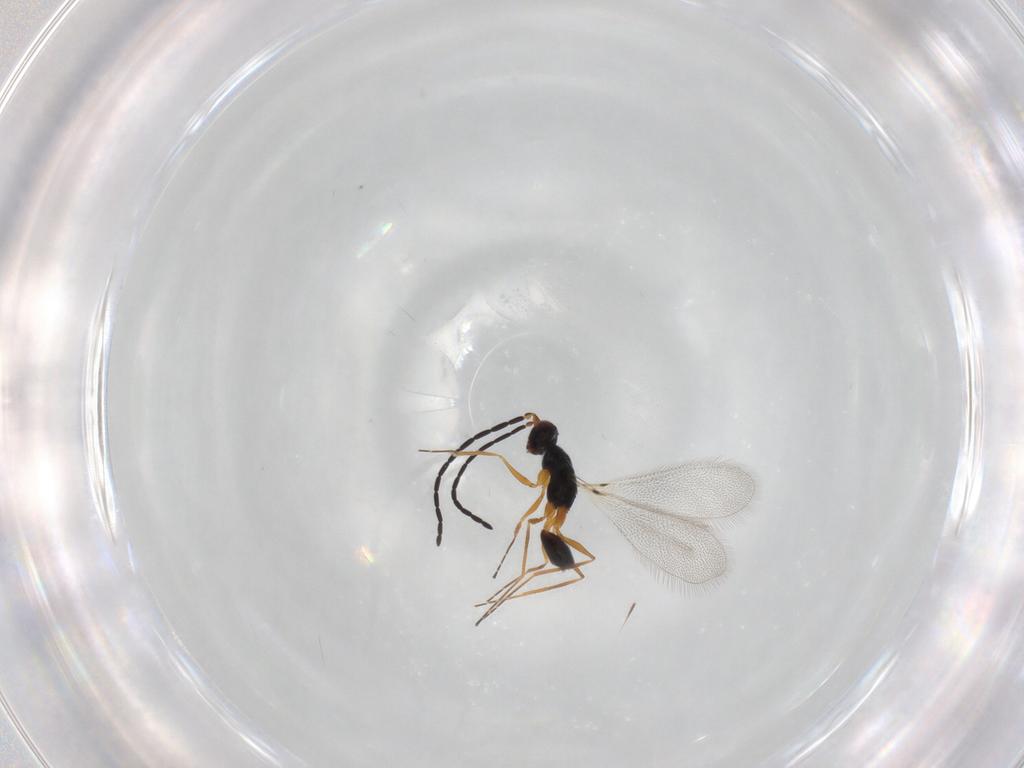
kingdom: Animalia
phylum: Arthropoda
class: Insecta
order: Hymenoptera
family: Mymaridae
